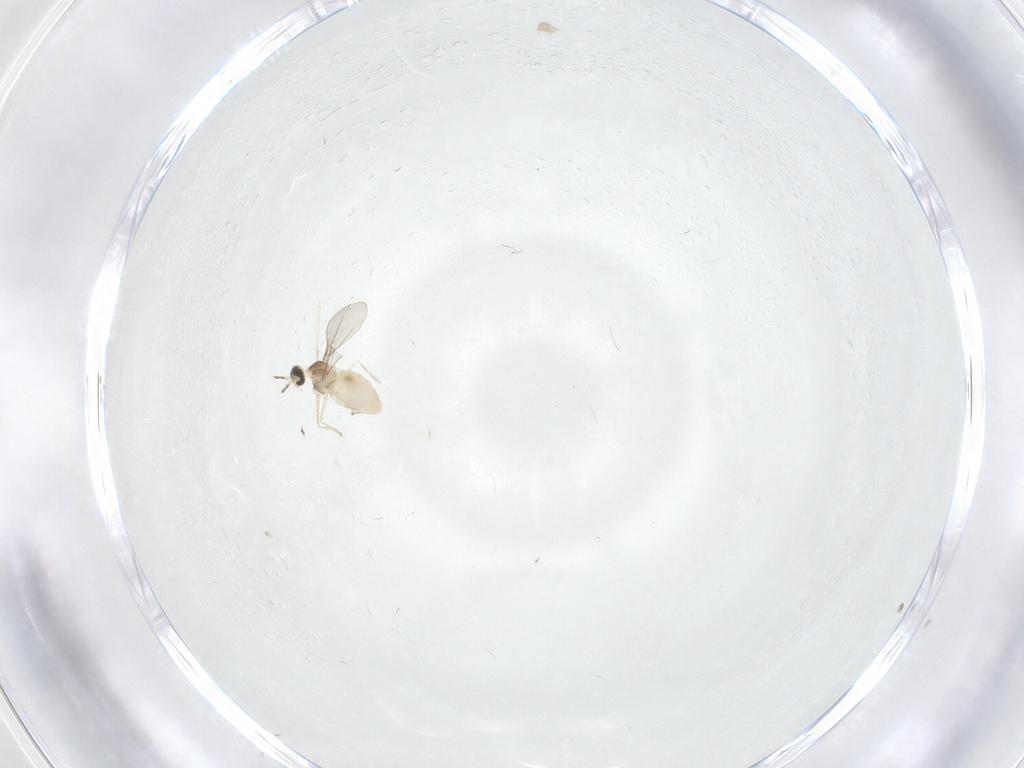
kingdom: Animalia
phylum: Arthropoda
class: Insecta
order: Diptera
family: Cecidomyiidae
